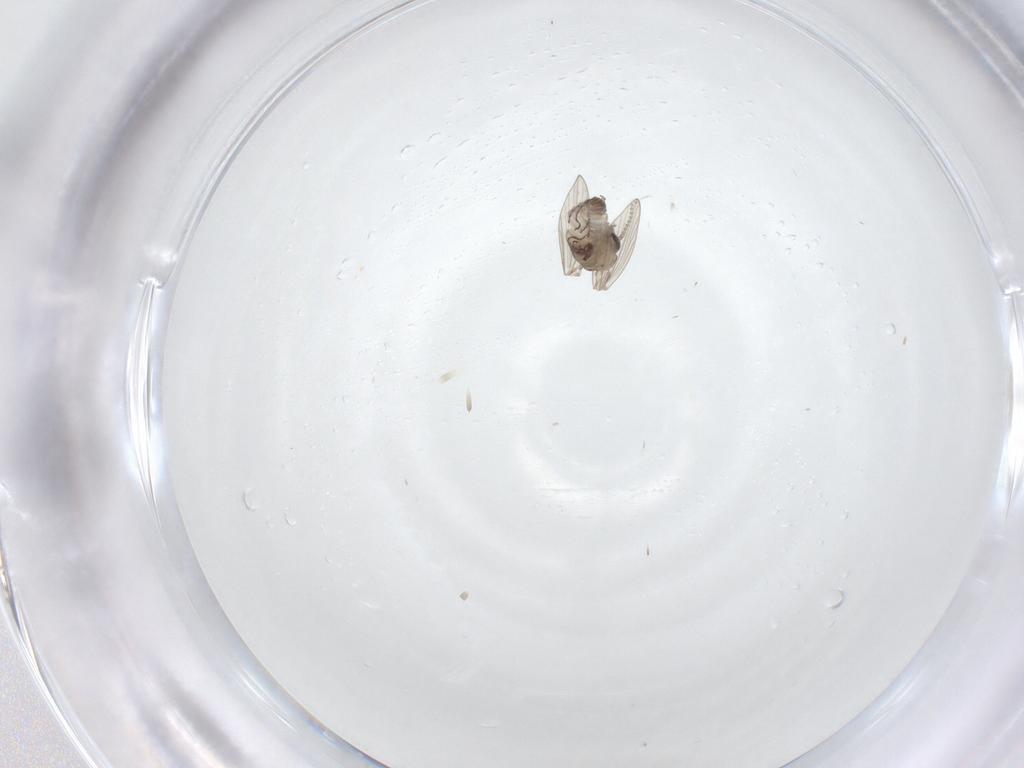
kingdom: Animalia
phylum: Arthropoda
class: Insecta
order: Diptera
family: Psychodidae
